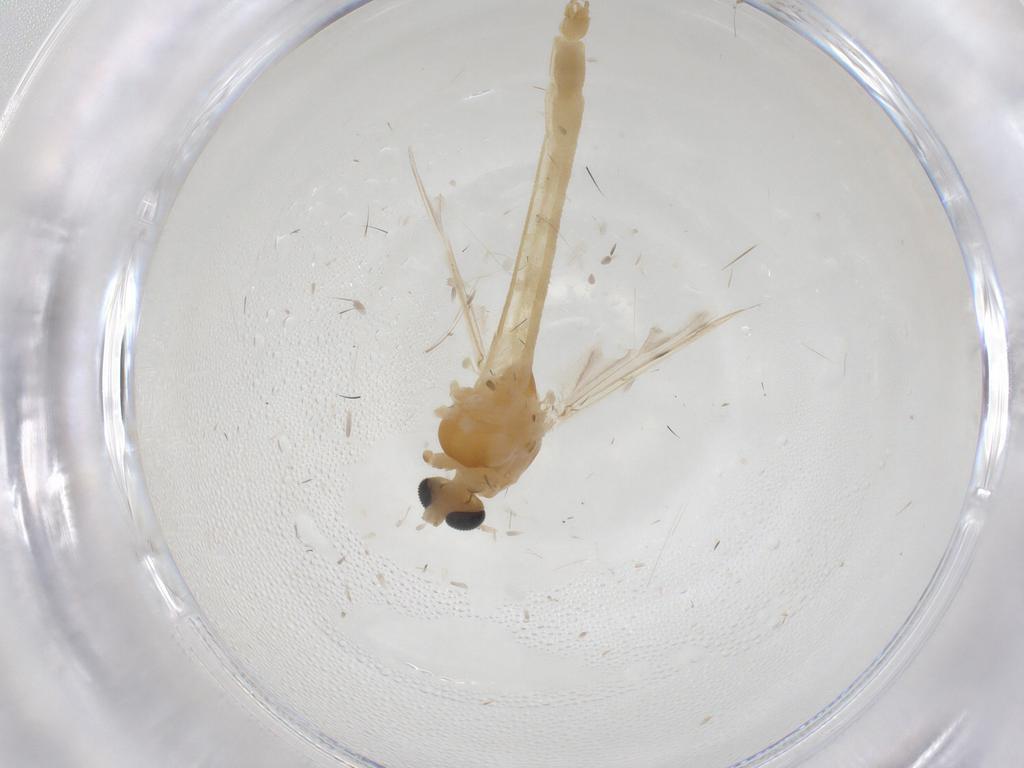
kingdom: Animalia
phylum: Arthropoda
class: Insecta
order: Diptera
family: Chironomidae
